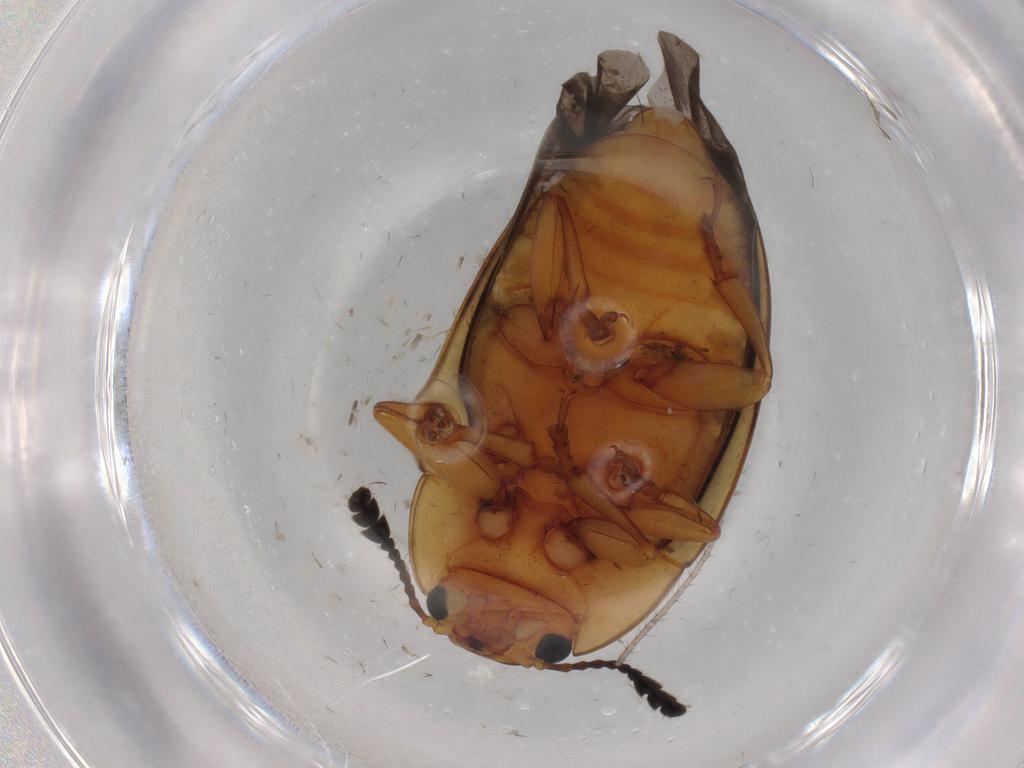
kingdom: Animalia
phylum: Arthropoda
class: Insecta
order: Coleoptera
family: Erotylidae
